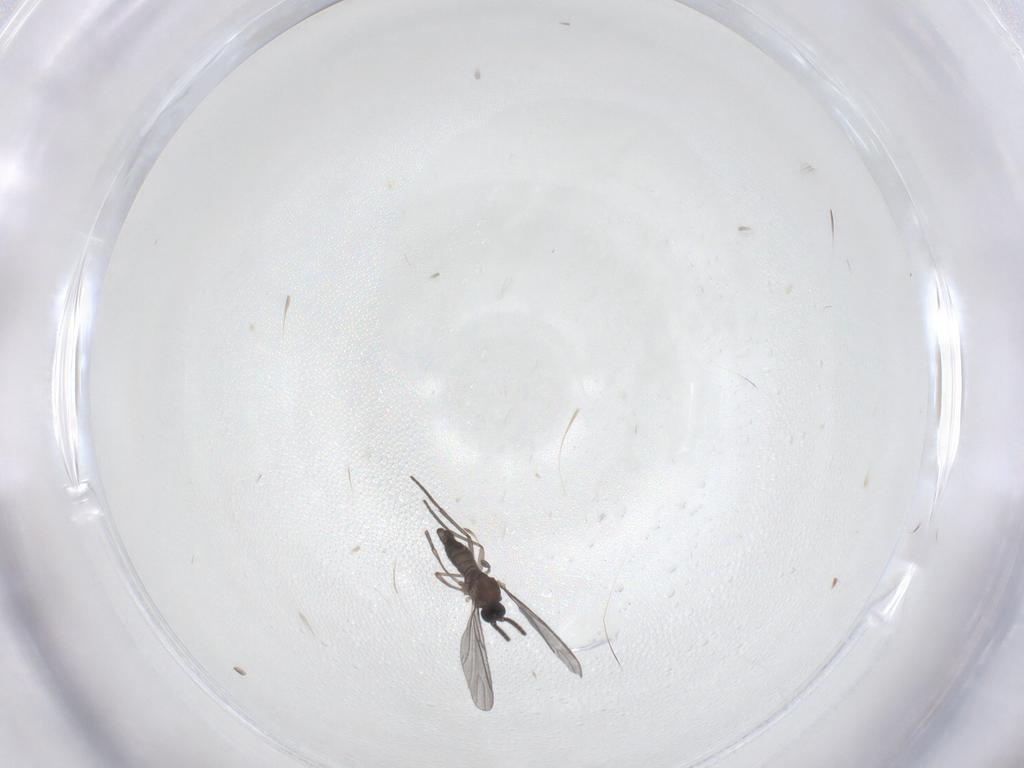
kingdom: Animalia
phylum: Arthropoda
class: Insecta
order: Diptera
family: Sciaridae
